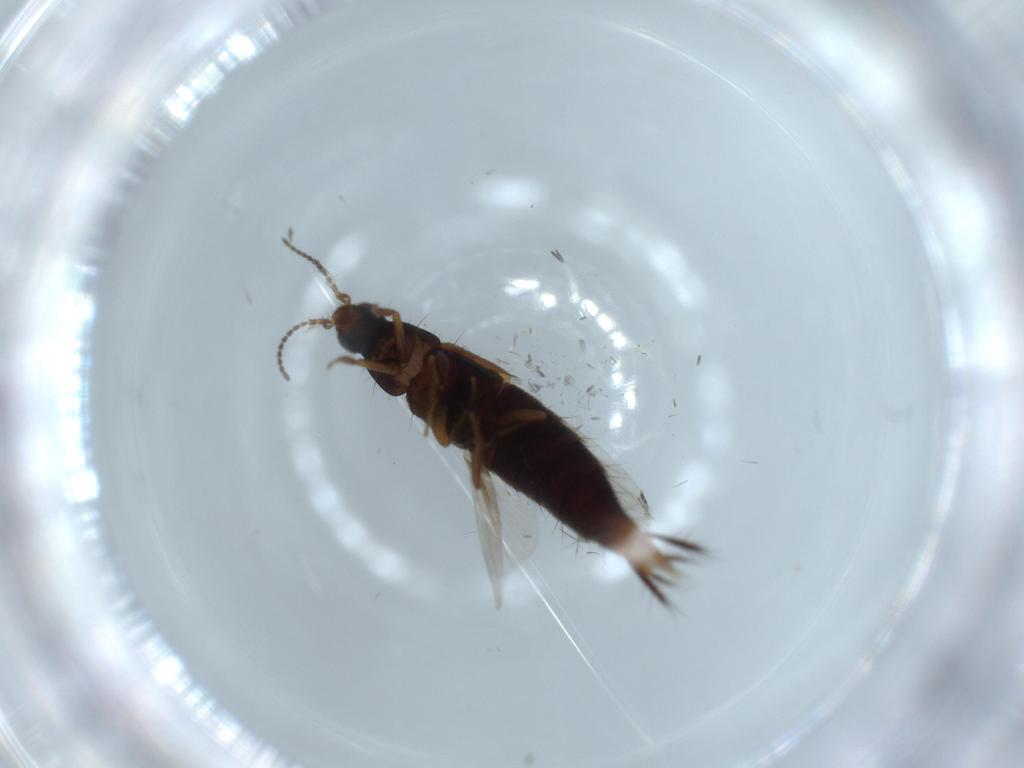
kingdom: Animalia
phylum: Arthropoda
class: Insecta
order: Coleoptera
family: Staphylinidae
